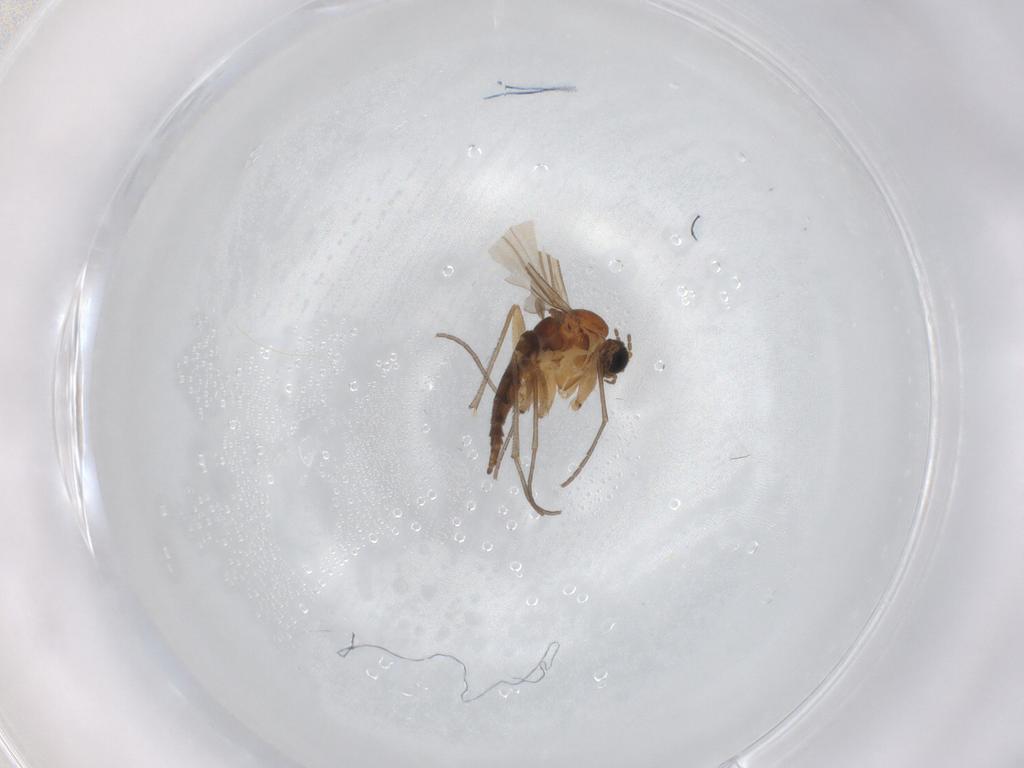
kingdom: Animalia
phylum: Arthropoda
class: Insecta
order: Diptera
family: Sciaridae
